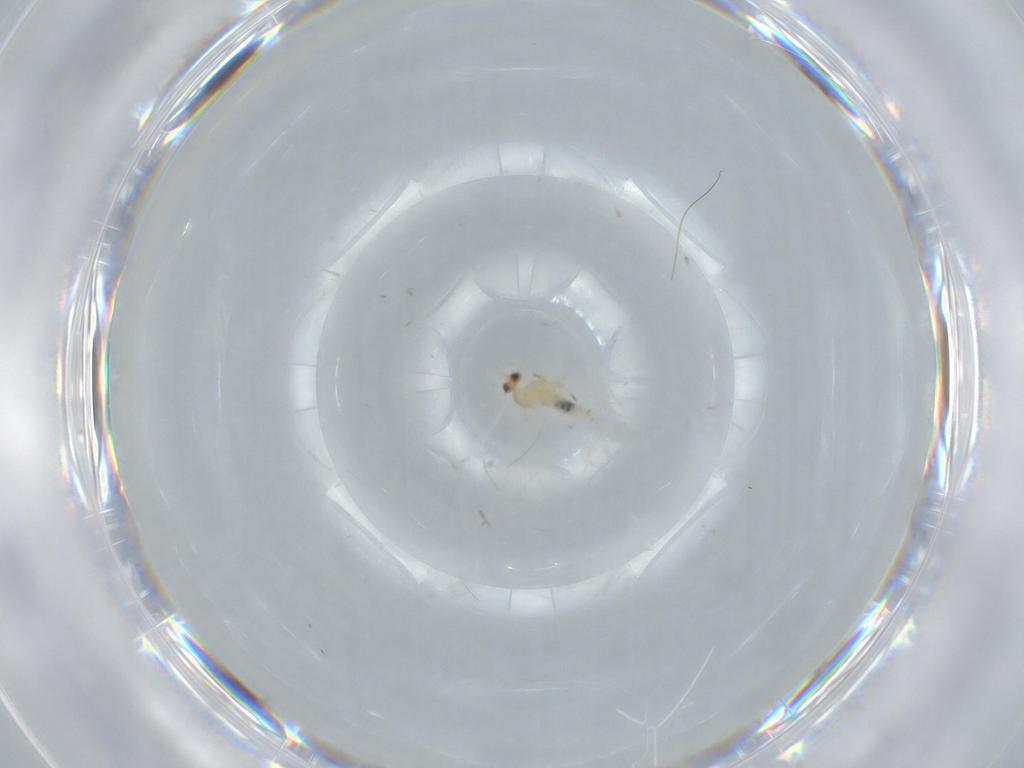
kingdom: Animalia
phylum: Arthropoda
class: Insecta
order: Diptera
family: Psychodidae
